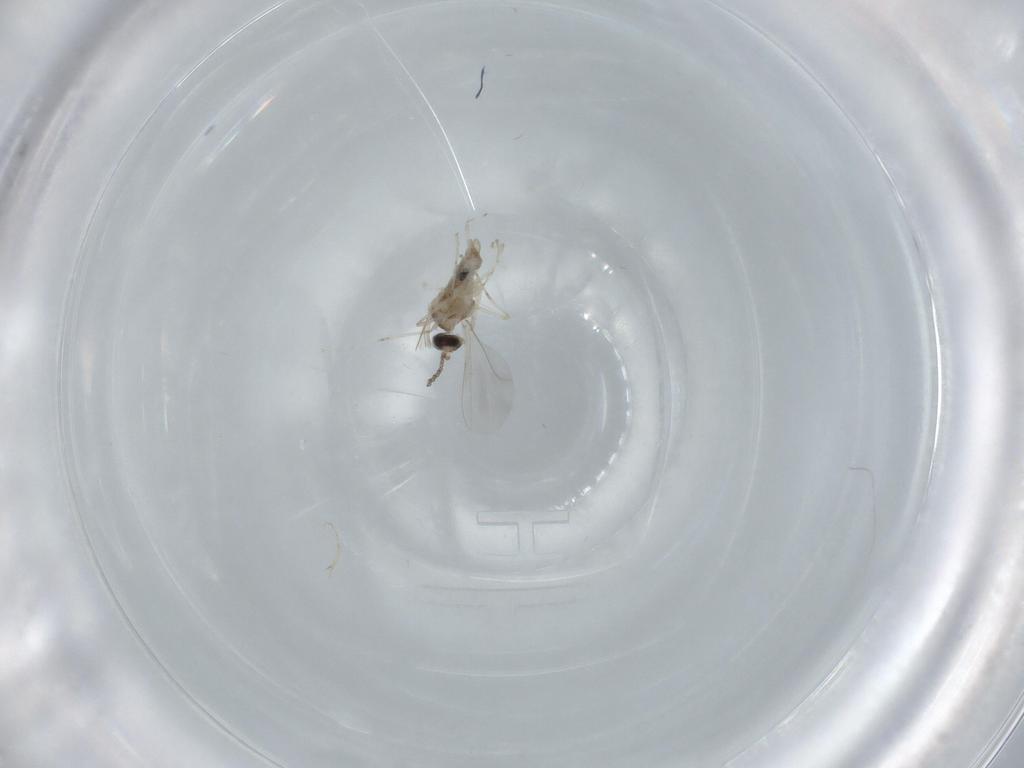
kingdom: Animalia
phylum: Arthropoda
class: Insecta
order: Diptera
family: Cecidomyiidae
